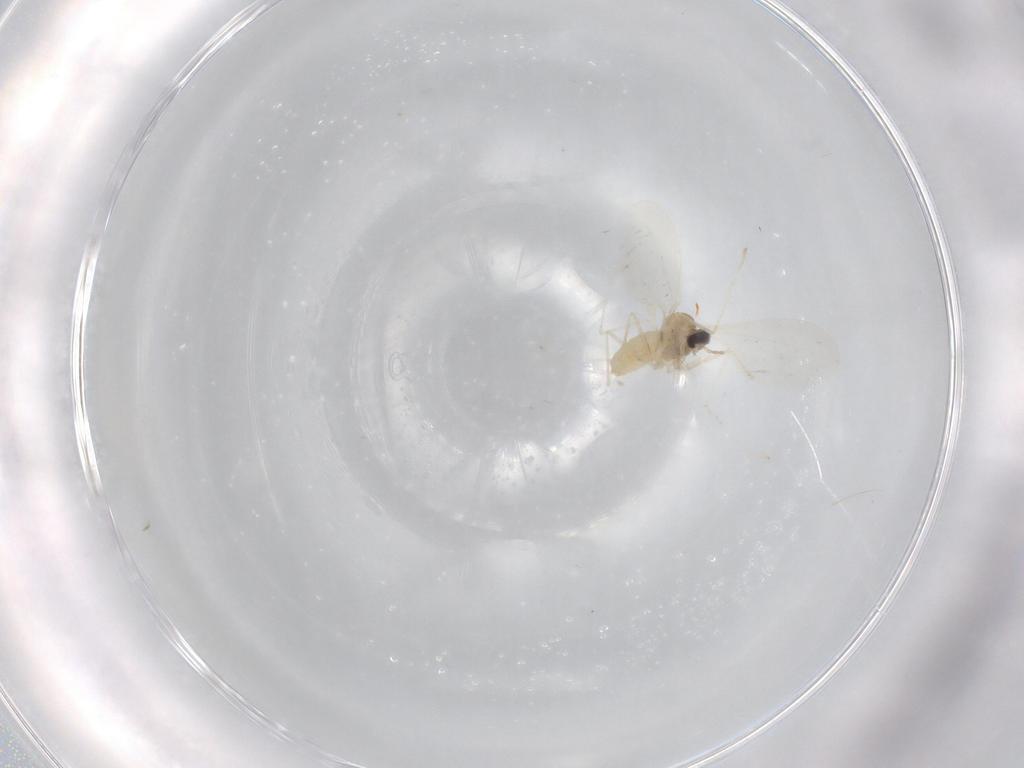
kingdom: Animalia
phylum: Arthropoda
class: Insecta
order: Diptera
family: Cecidomyiidae
